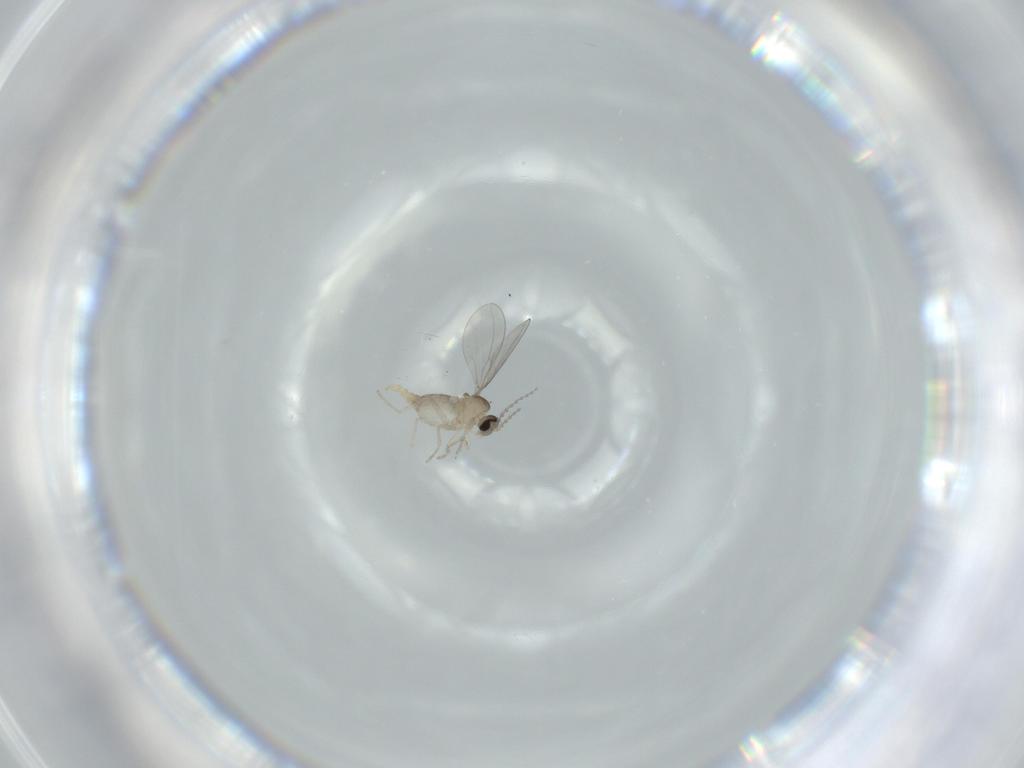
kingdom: Animalia
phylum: Arthropoda
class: Insecta
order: Diptera
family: Cecidomyiidae
